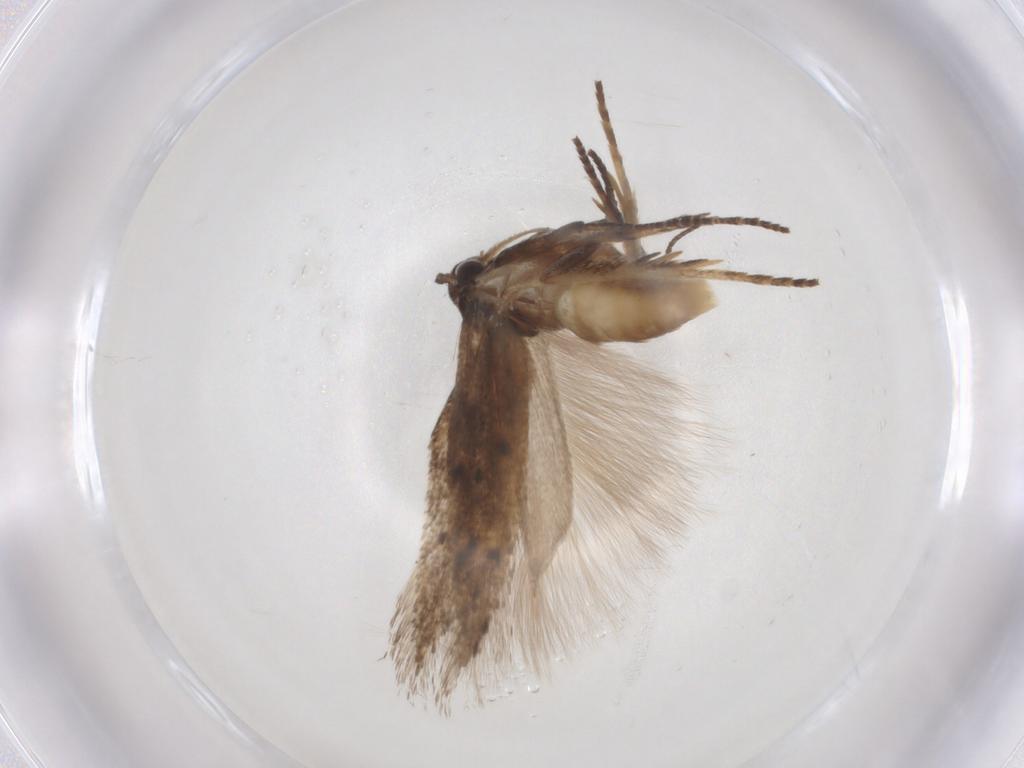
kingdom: Animalia
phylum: Arthropoda
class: Insecta
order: Lepidoptera
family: Gelechiidae
